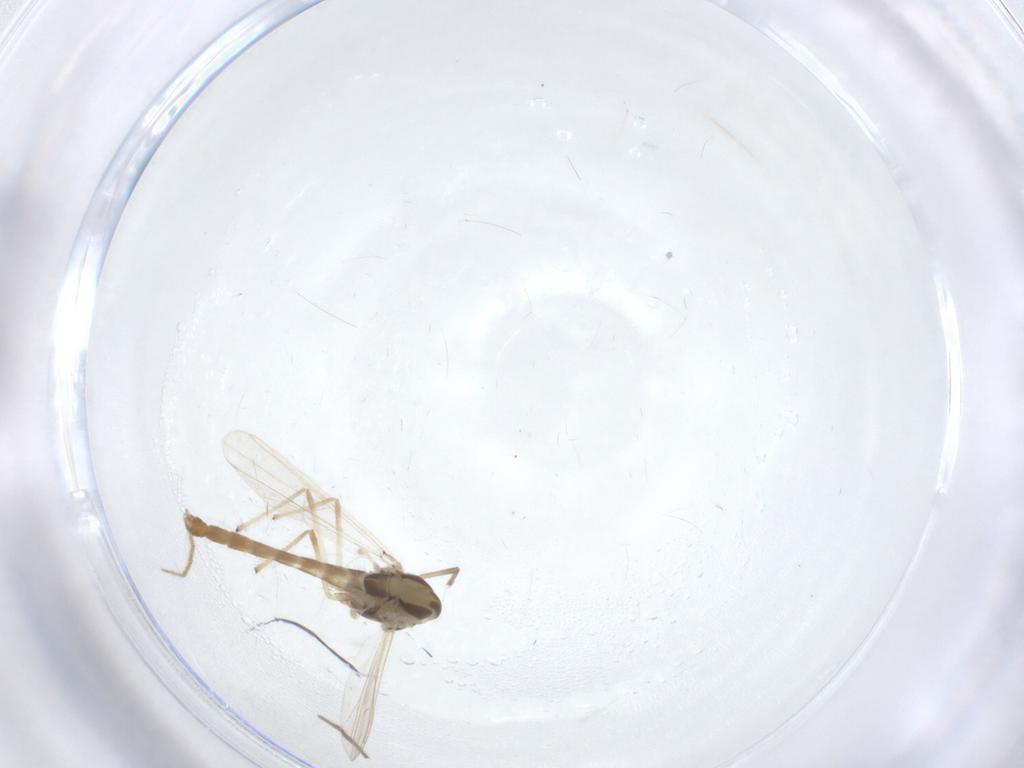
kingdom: Animalia
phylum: Arthropoda
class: Insecta
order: Diptera
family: Chironomidae
